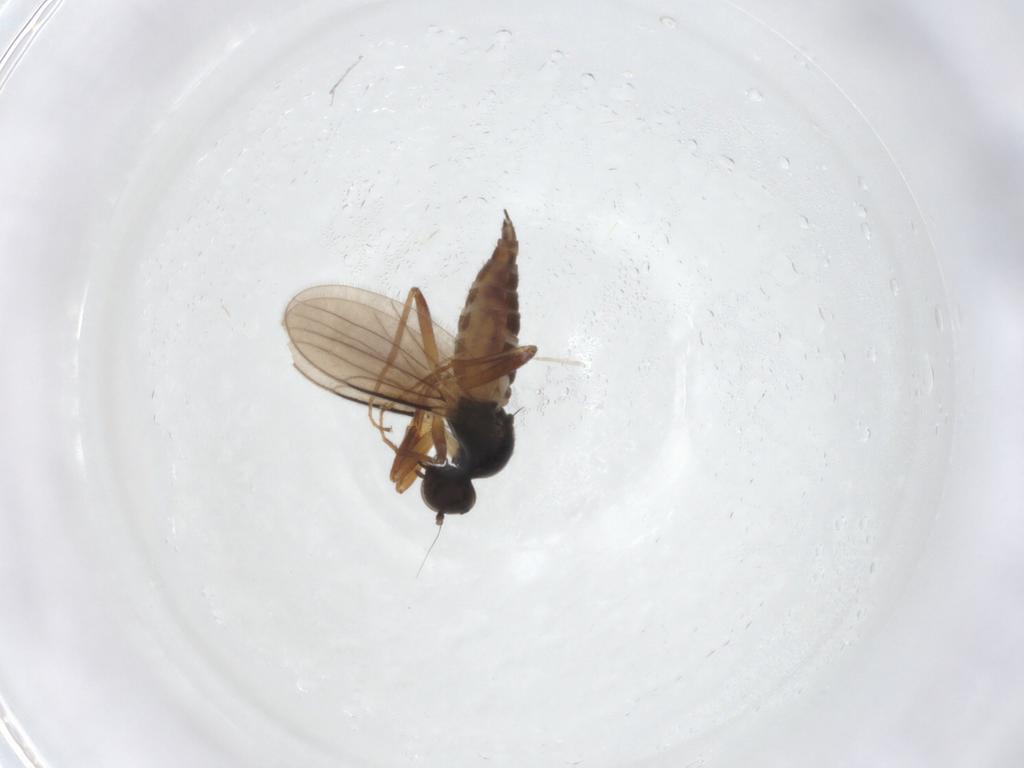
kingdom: Animalia
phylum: Arthropoda
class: Insecta
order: Diptera
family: Hybotidae
